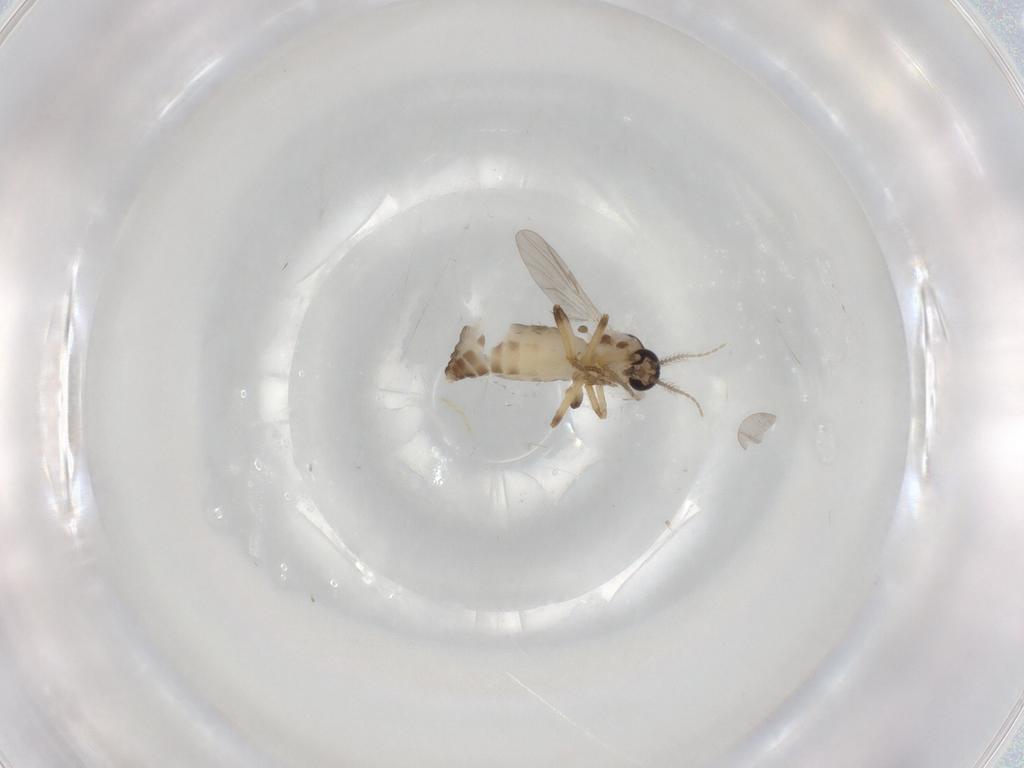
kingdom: Animalia
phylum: Arthropoda
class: Insecta
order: Diptera
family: Ceratopogonidae
